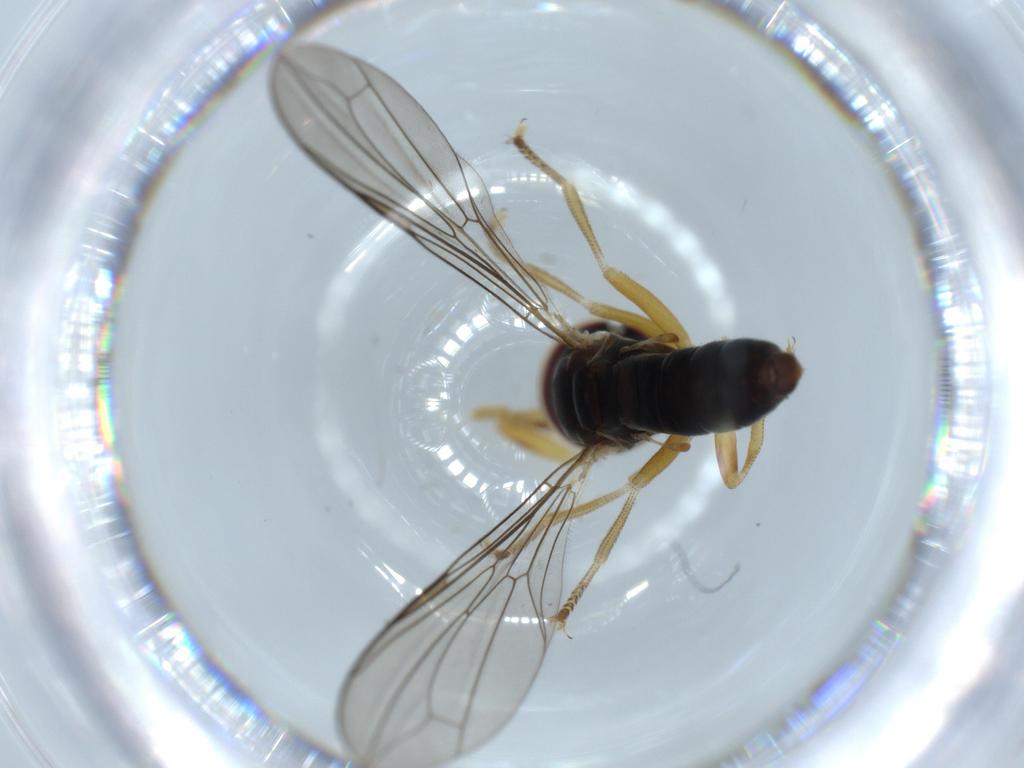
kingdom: Animalia
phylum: Arthropoda
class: Insecta
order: Diptera
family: Pipunculidae
